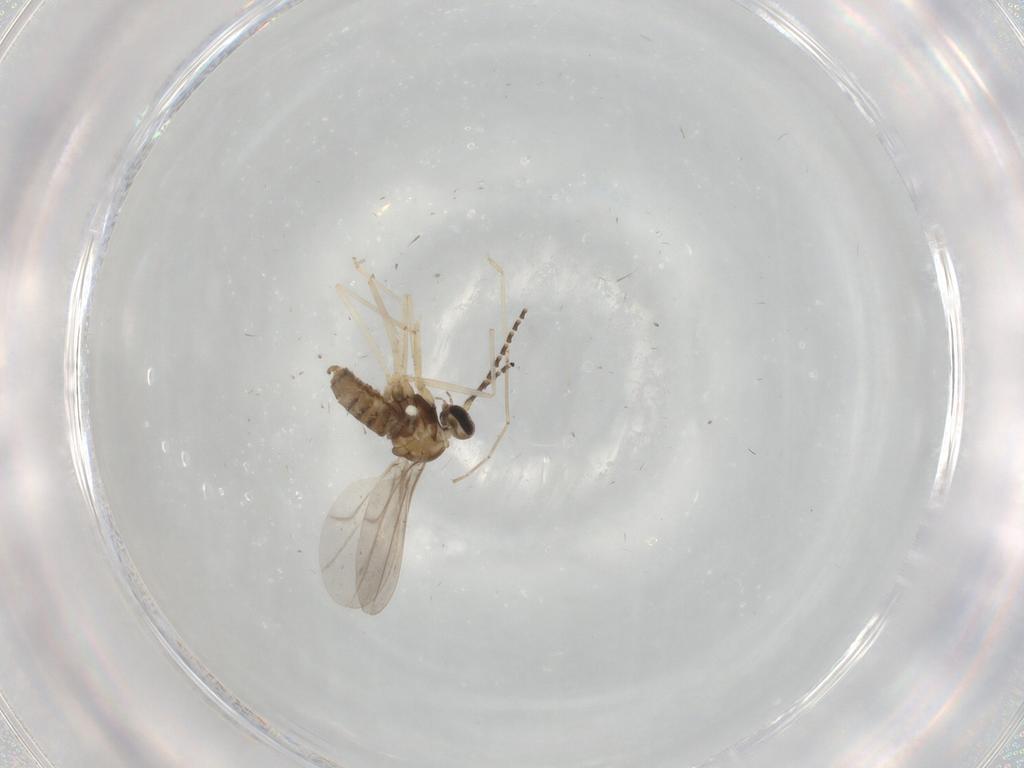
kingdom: Animalia
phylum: Arthropoda
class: Insecta
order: Diptera
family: Cecidomyiidae
